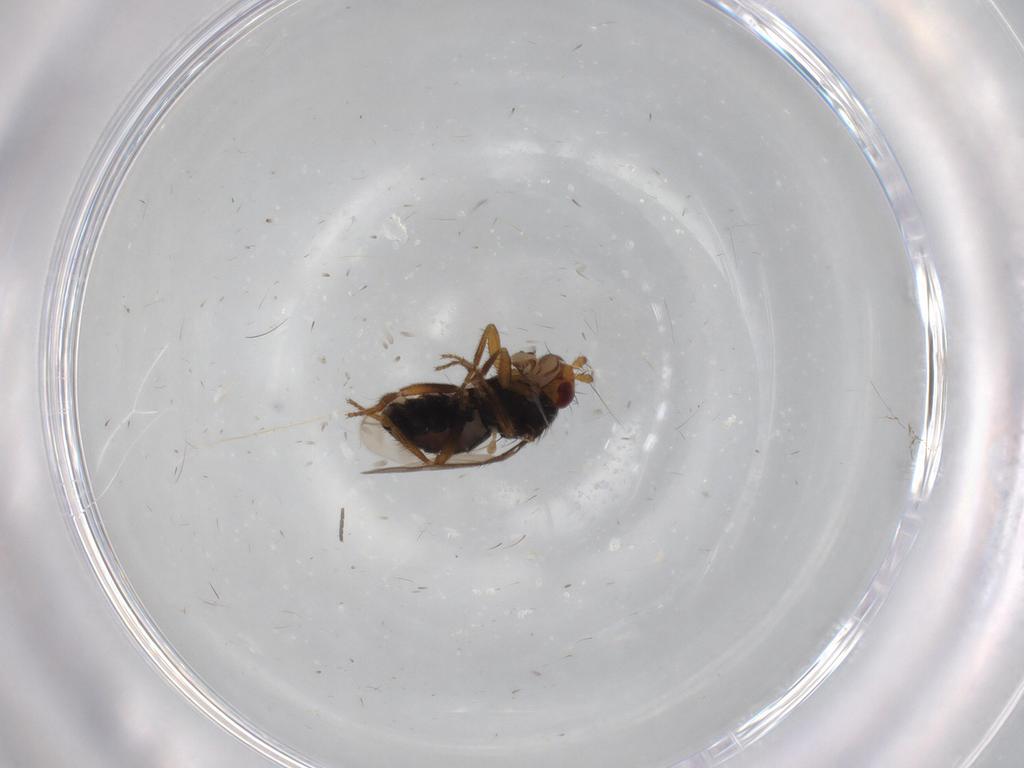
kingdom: Animalia
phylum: Arthropoda
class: Insecta
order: Diptera
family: Sphaeroceridae
